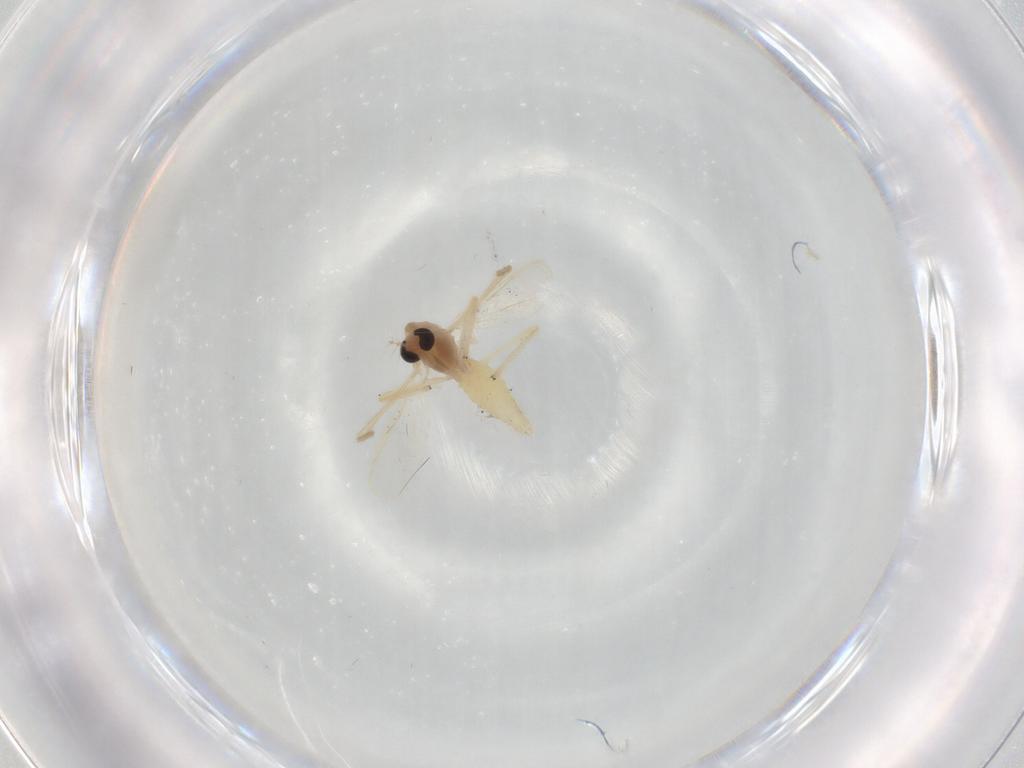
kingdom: Animalia
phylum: Arthropoda
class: Insecta
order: Diptera
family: Chironomidae
